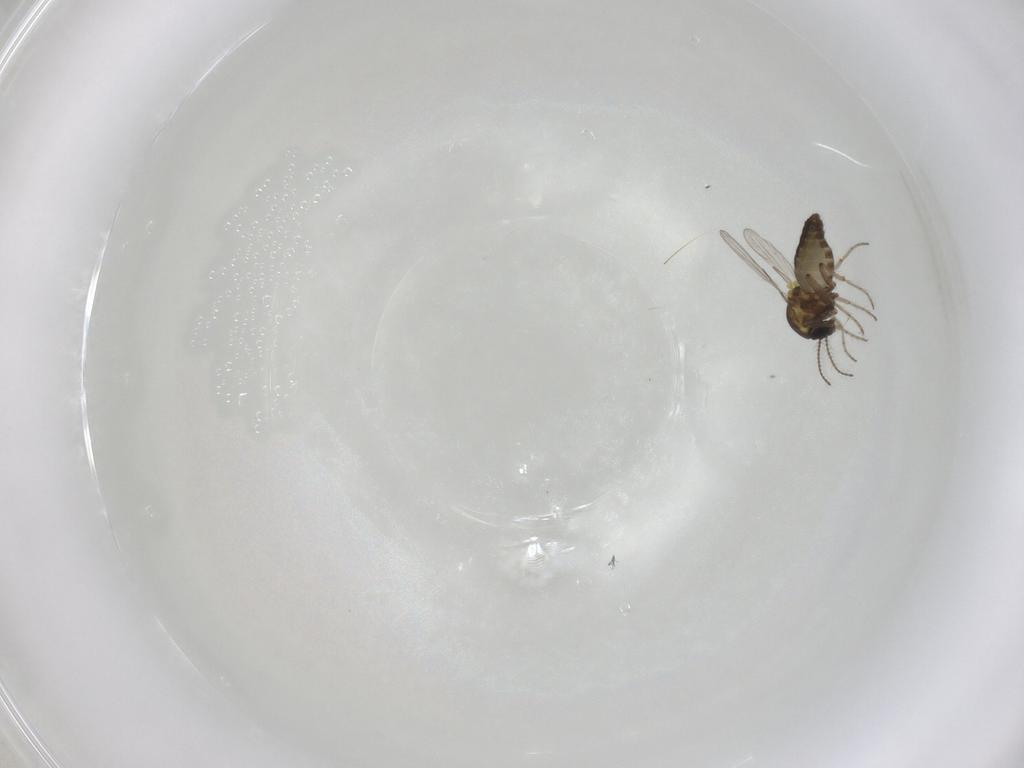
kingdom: Animalia
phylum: Arthropoda
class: Insecta
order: Diptera
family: Ceratopogonidae
